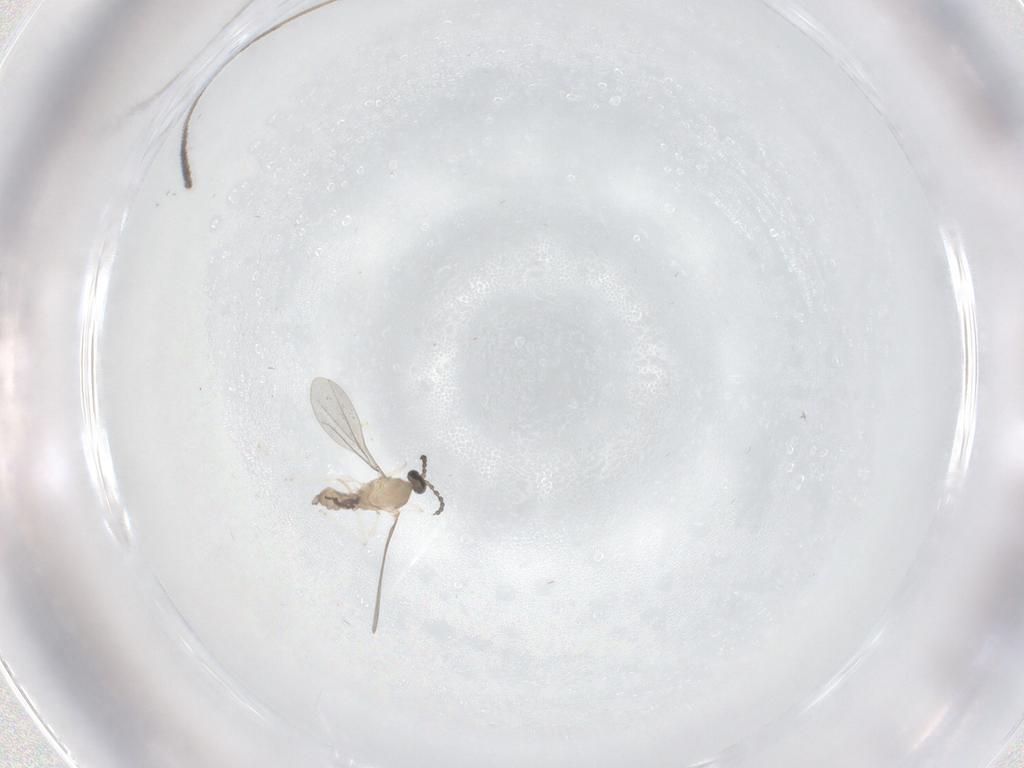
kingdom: Animalia
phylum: Arthropoda
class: Insecta
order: Diptera
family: Cecidomyiidae
